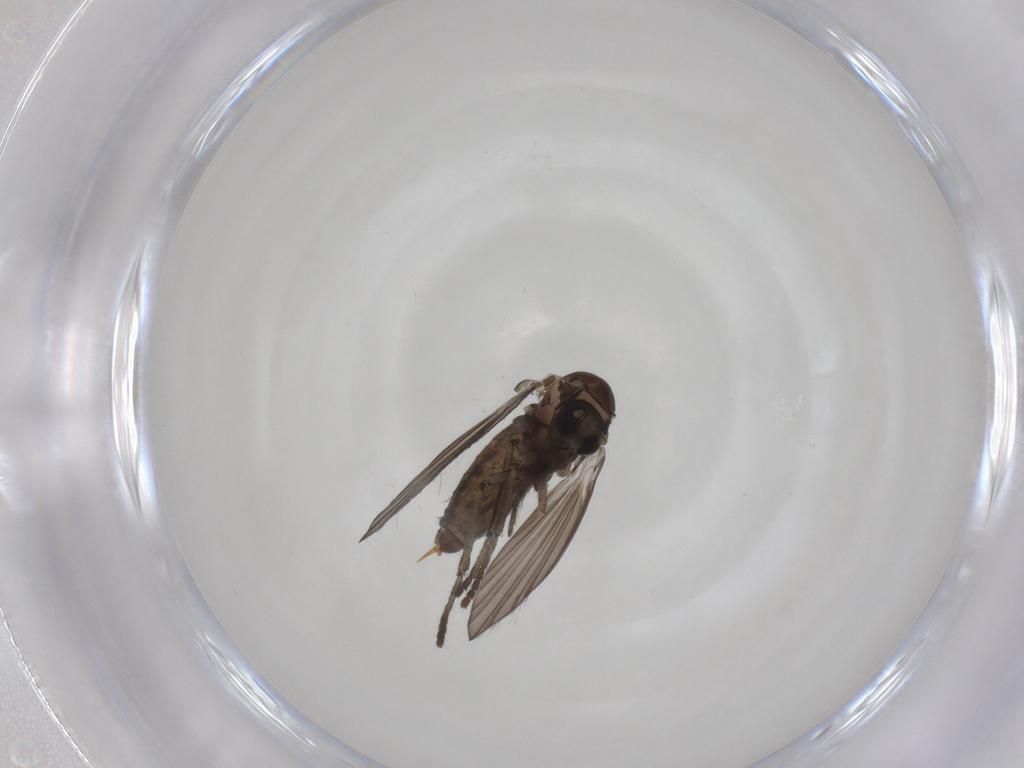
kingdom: Animalia
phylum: Arthropoda
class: Insecta
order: Diptera
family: Psychodidae
